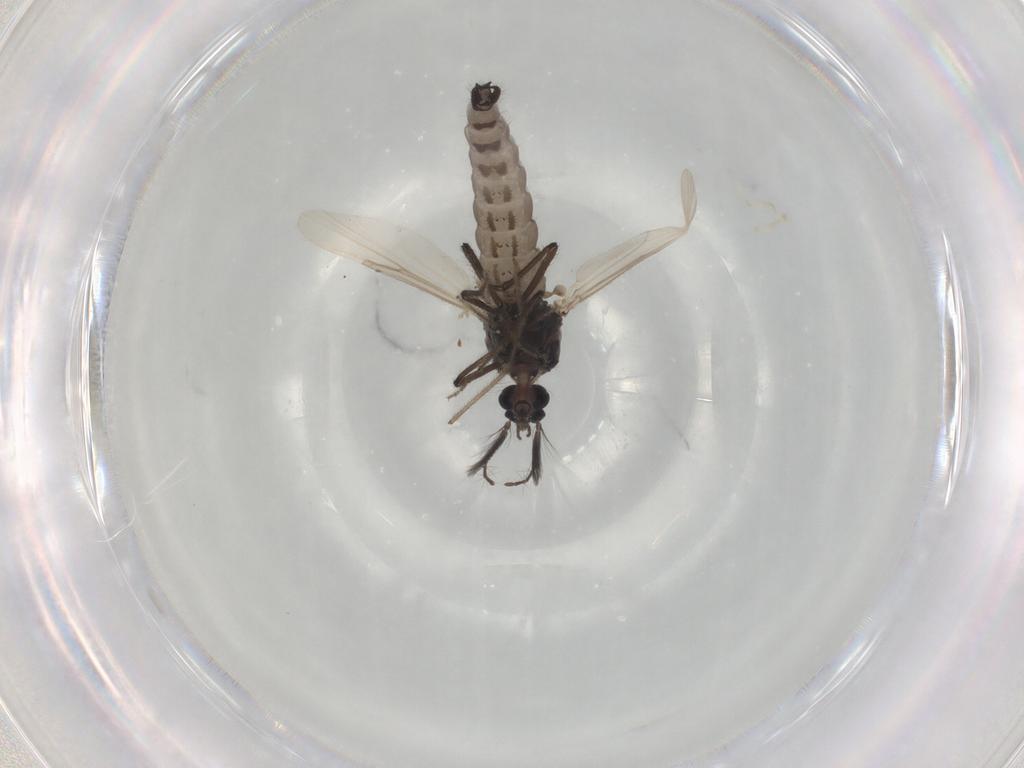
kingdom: Animalia
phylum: Arthropoda
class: Insecta
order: Diptera
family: Ceratopogonidae
